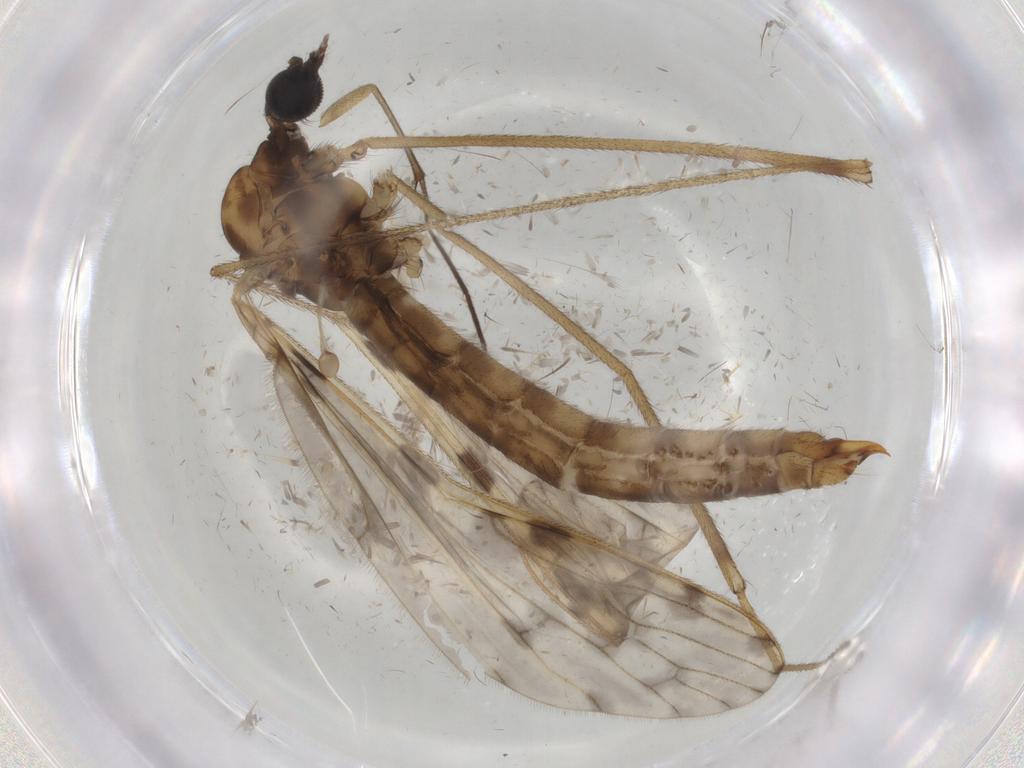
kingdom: Animalia
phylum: Arthropoda
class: Insecta
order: Diptera
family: Limoniidae
